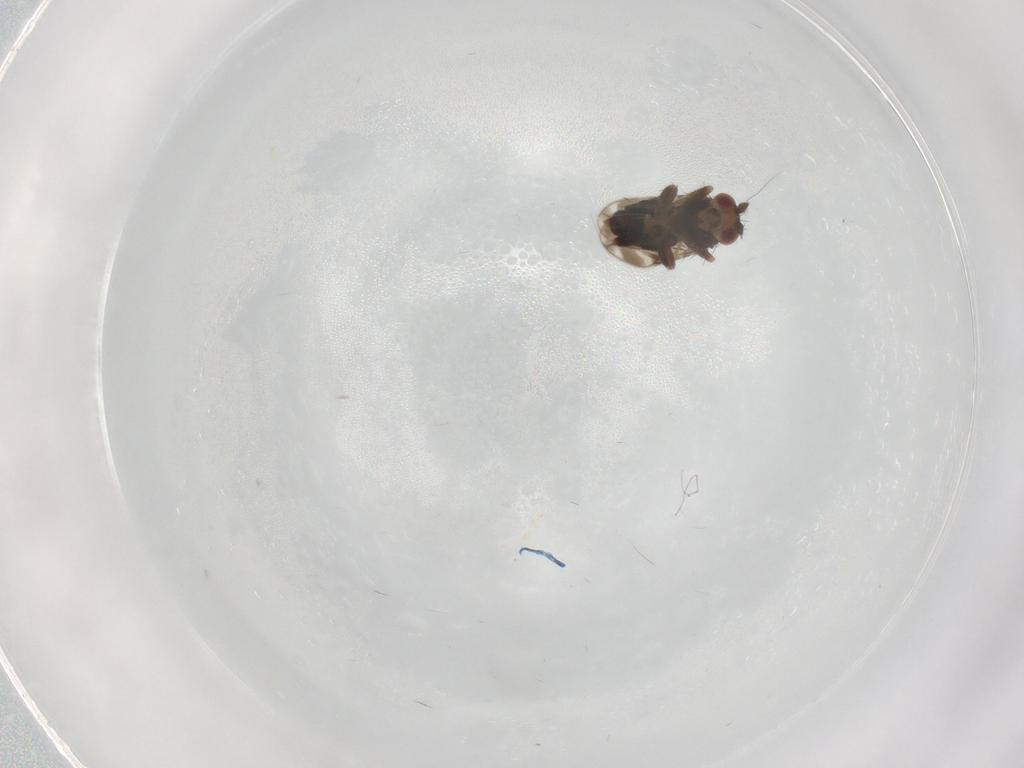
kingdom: Animalia
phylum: Arthropoda
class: Insecta
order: Diptera
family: Sphaeroceridae
